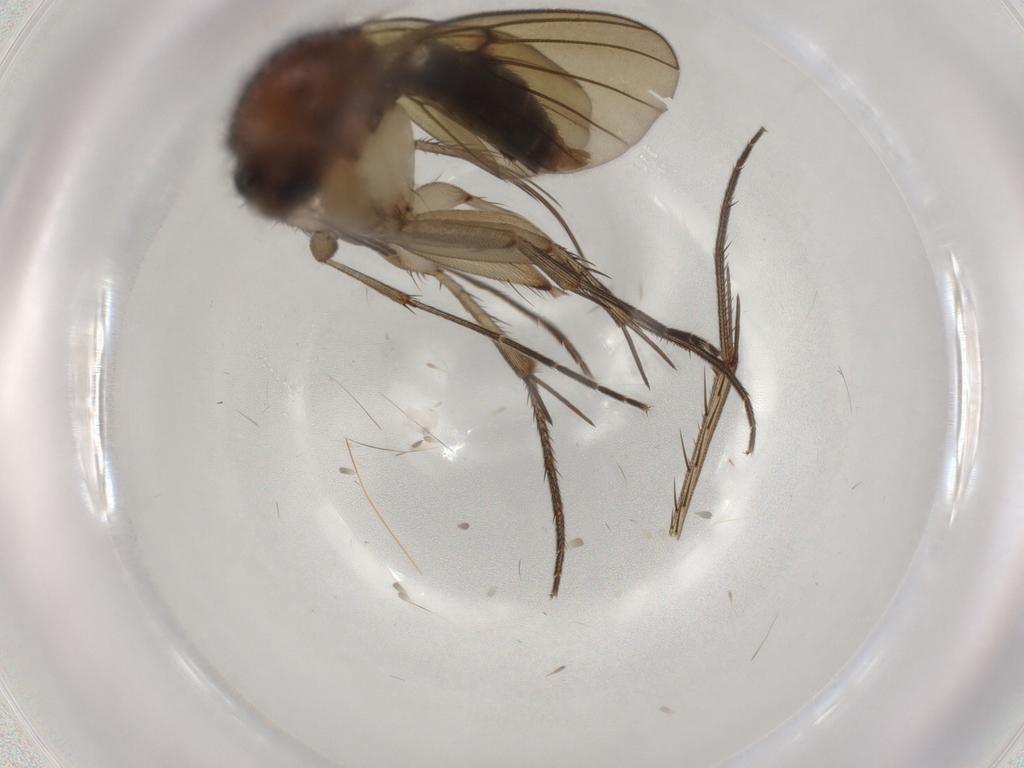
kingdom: Animalia
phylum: Arthropoda
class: Insecta
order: Diptera
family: Mycetophilidae
